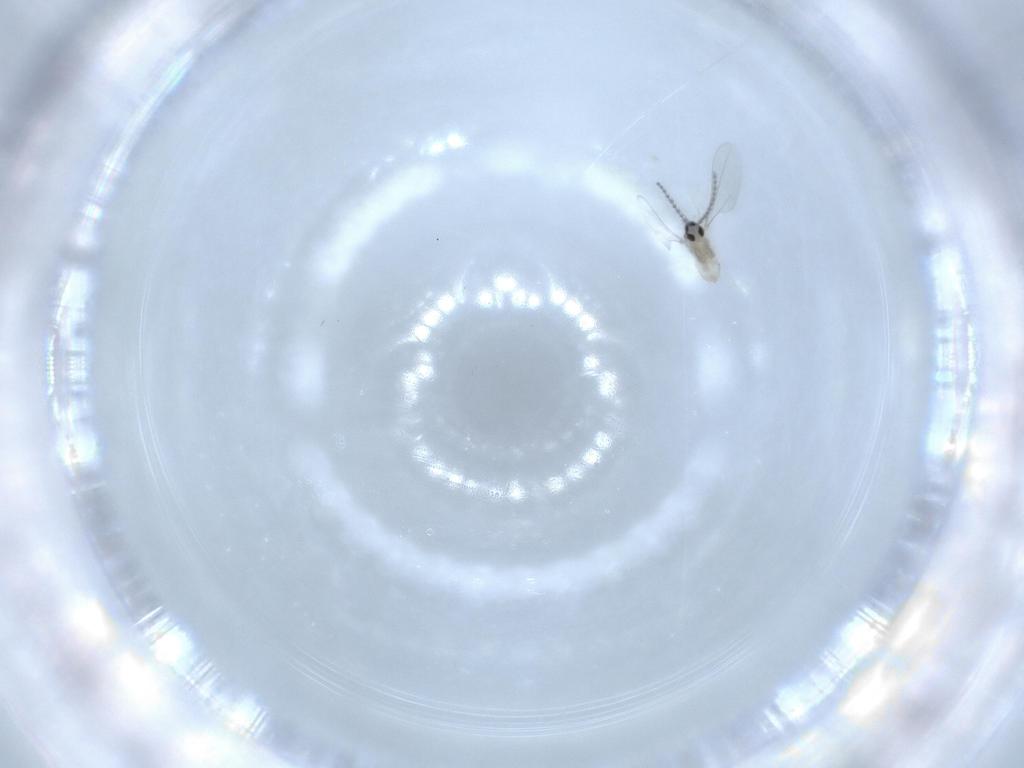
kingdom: Animalia
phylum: Arthropoda
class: Insecta
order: Diptera
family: Cecidomyiidae
